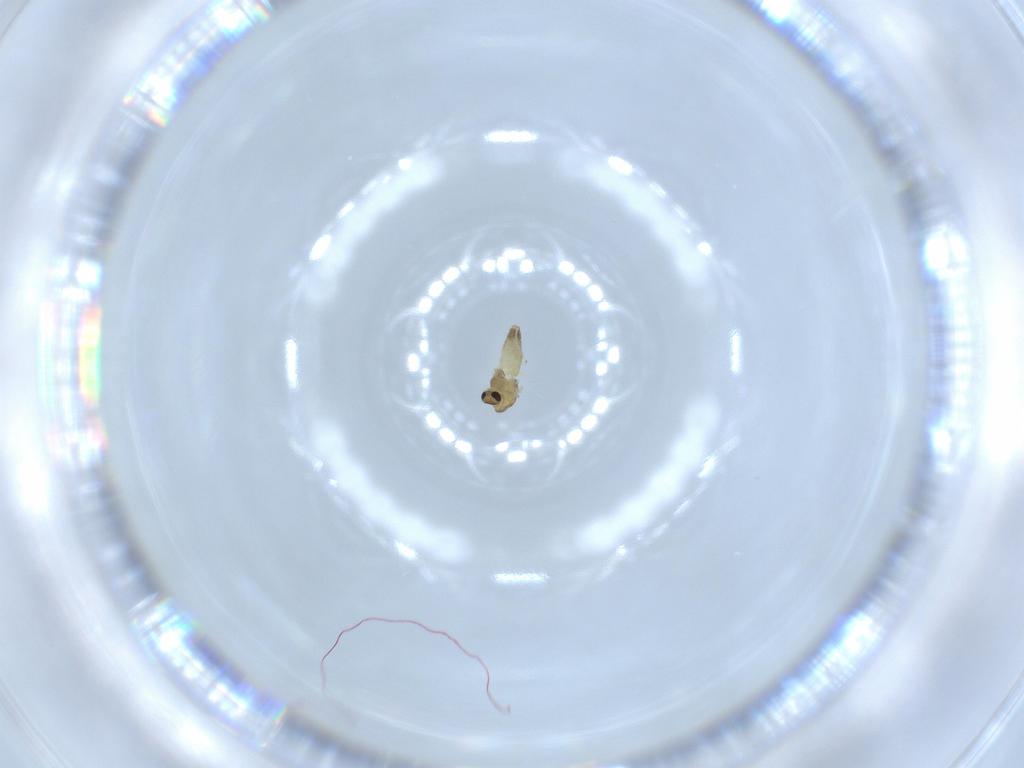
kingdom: Animalia
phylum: Arthropoda
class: Insecta
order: Diptera
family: Chironomidae
